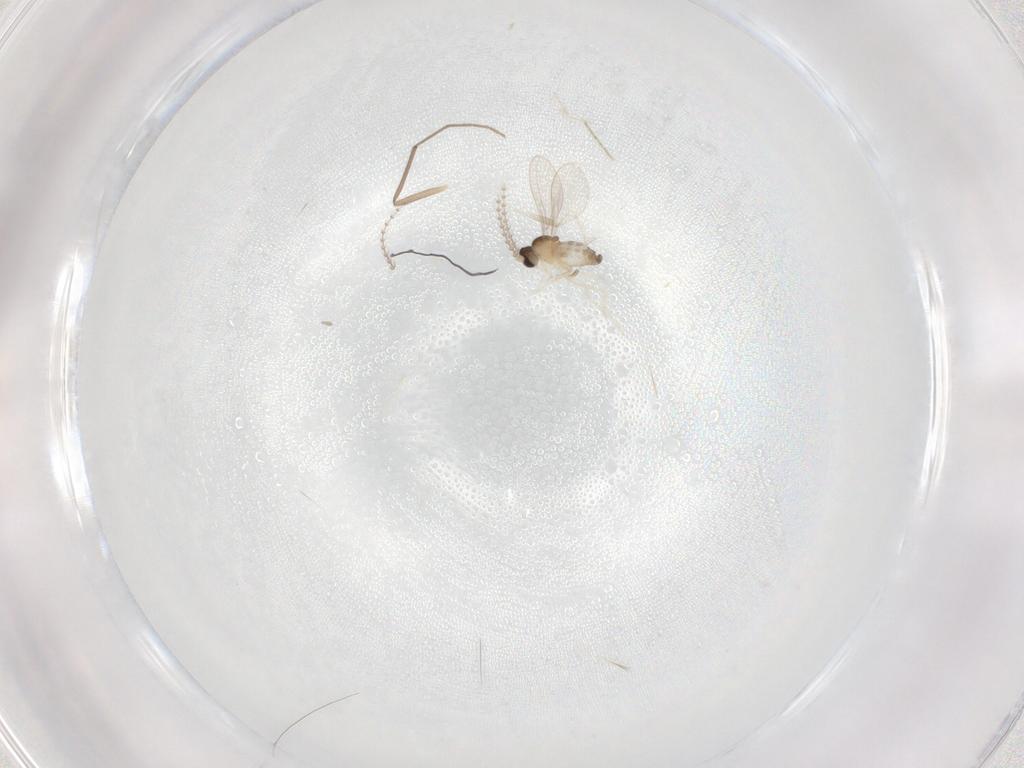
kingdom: Animalia
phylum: Arthropoda
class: Insecta
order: Diptera
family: Cecidomyiidae
